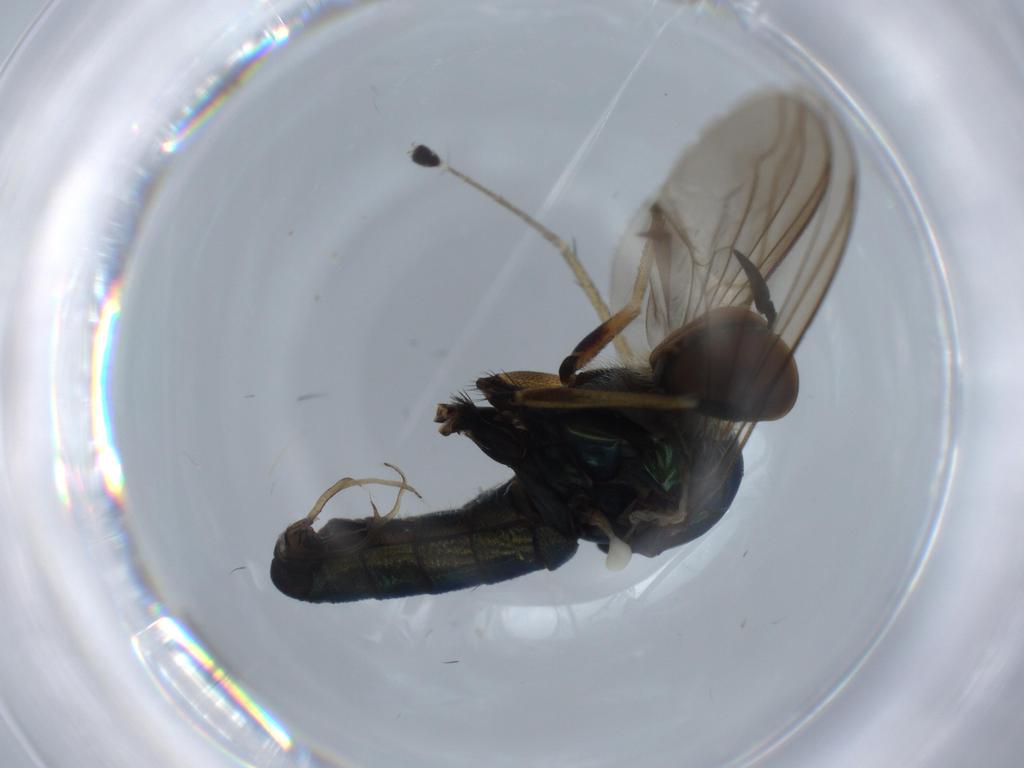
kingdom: Animalia
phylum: Arthropoda
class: Insecta
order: Diptera
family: Dolichopodidae
